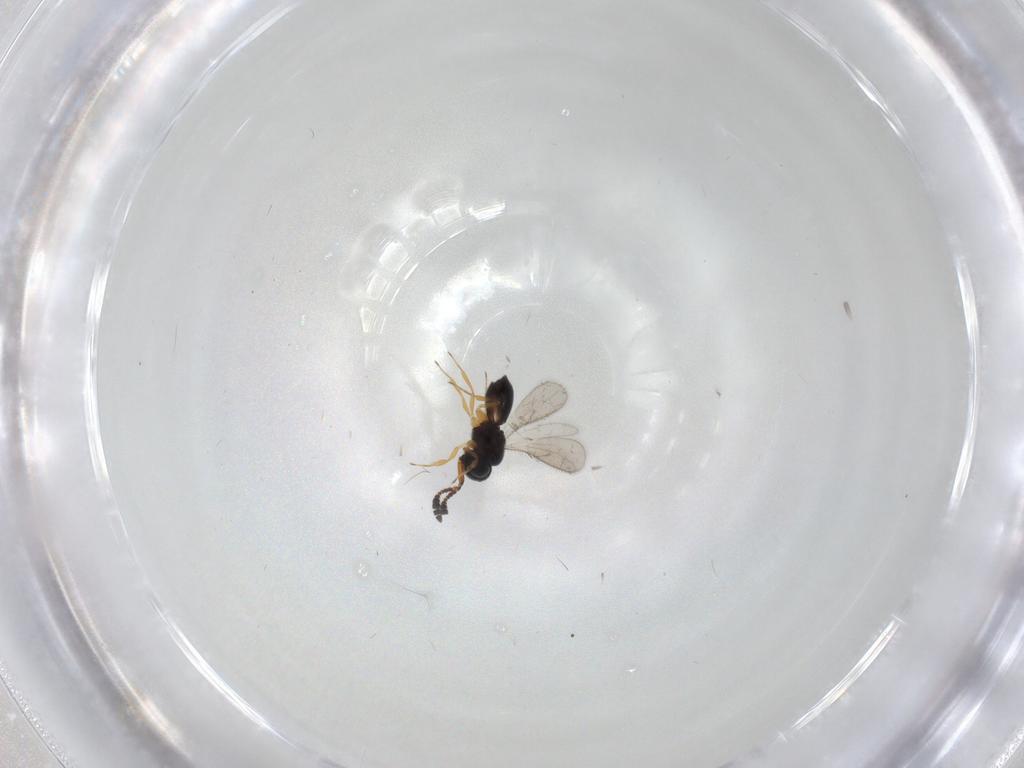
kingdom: Animalia
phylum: Arthropoda
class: Insecta
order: Hymenoptera
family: Scelionidae
